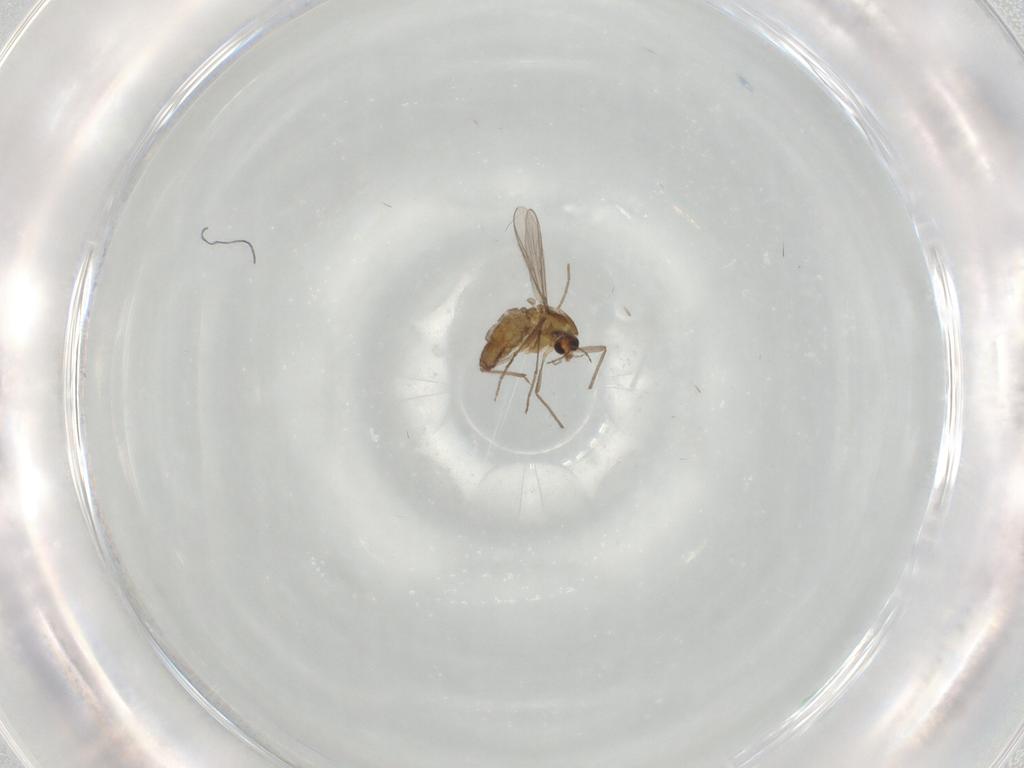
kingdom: Animalia
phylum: Arthropoda
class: Insecta
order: Diptera
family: Chironomidae
